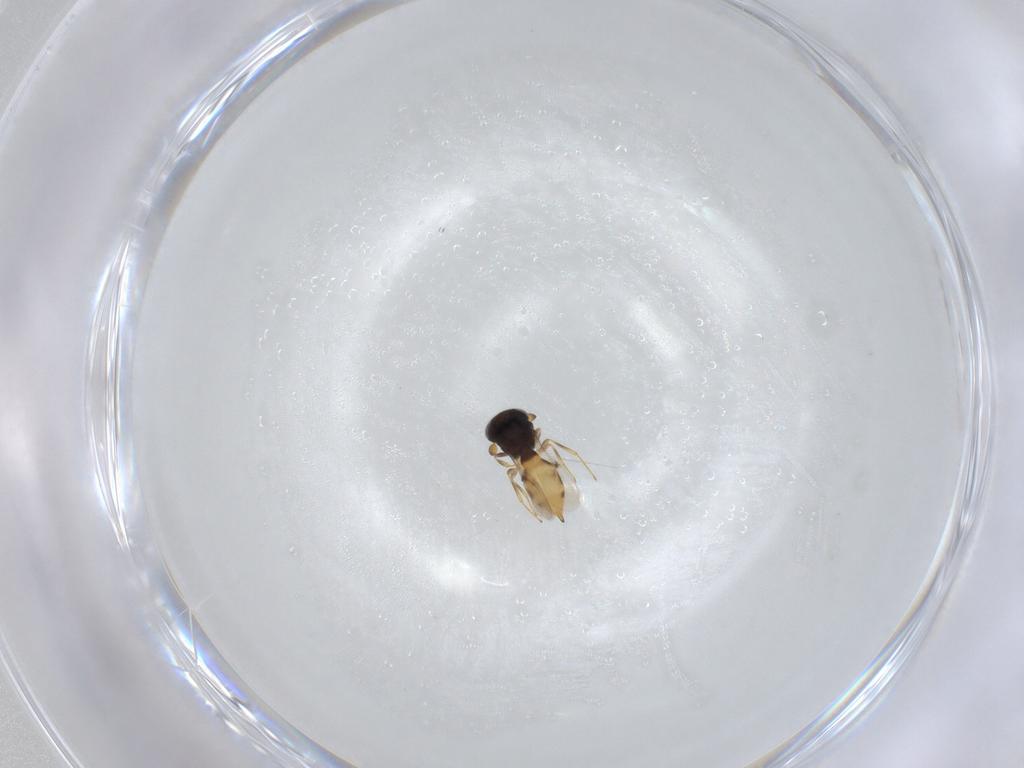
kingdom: Animalia
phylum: Arthropoda
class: Insecta
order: Hymenoptera
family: Scelionidae
